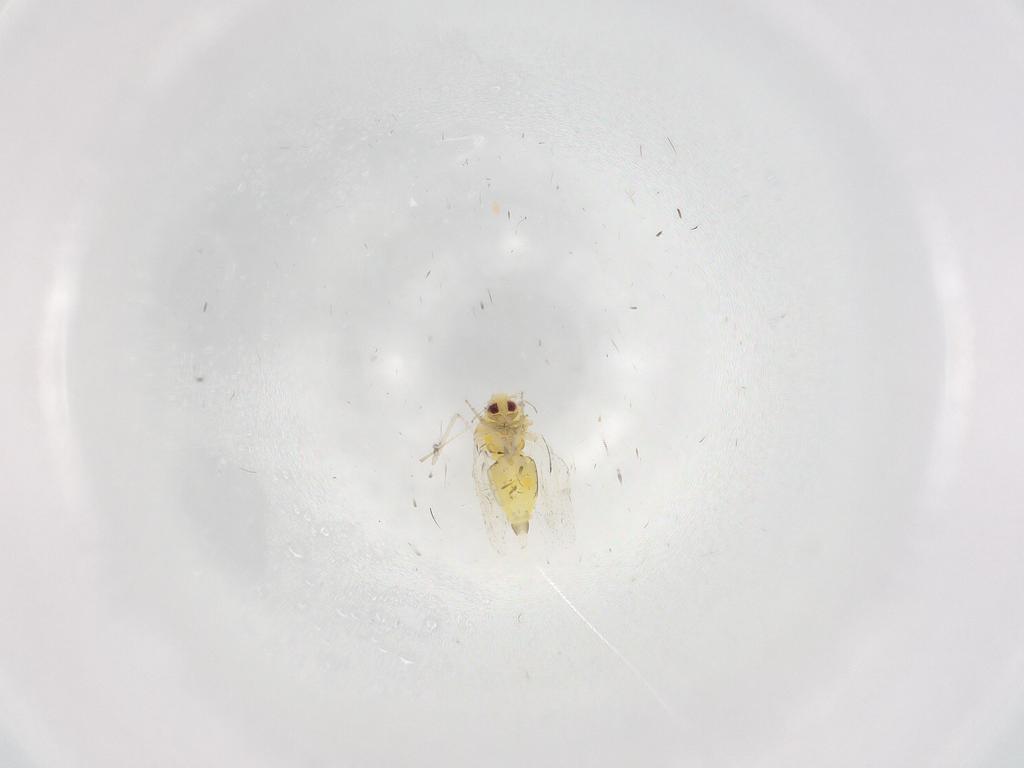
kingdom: Animalia
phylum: Arthropoda
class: Insecta
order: Hemiptera
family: Aleyrodidae
